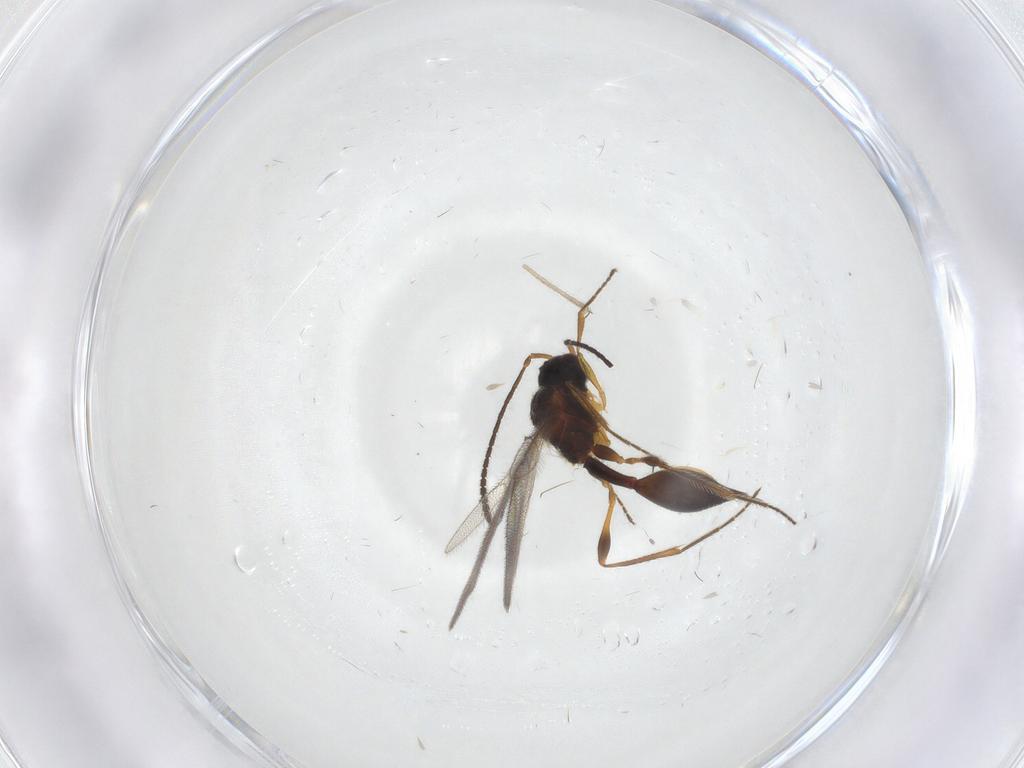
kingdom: Animalia
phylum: Arthropoda
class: Insecta
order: Hymenoptera
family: Diapriidae
